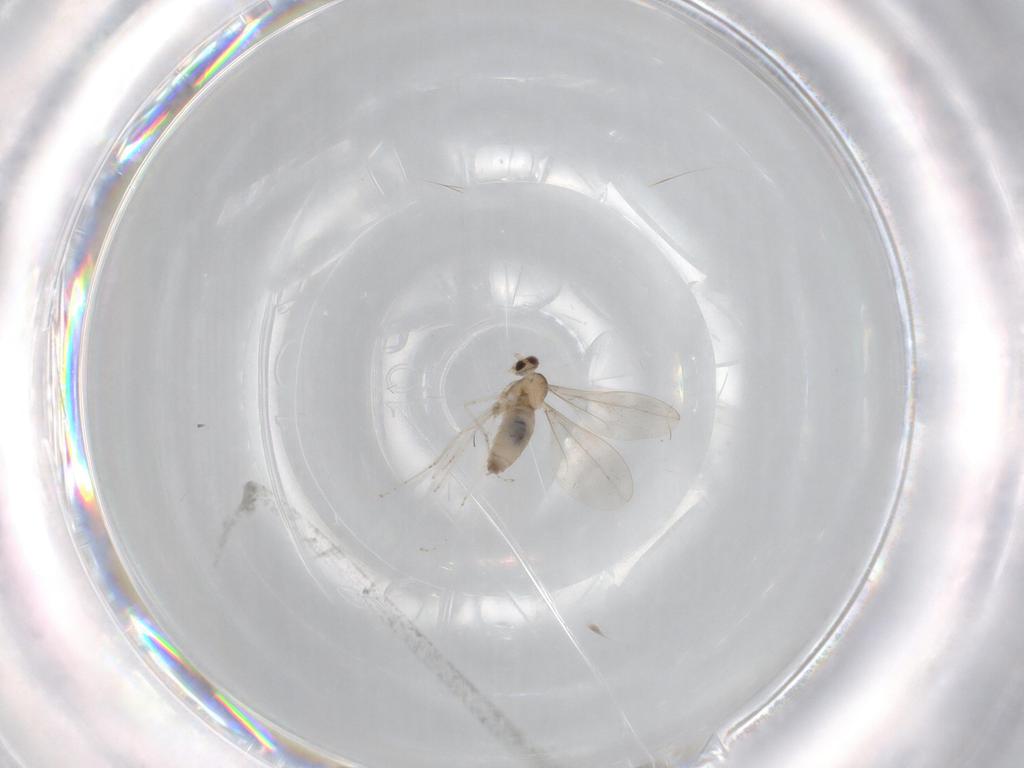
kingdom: Animalia
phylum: Arthropoda
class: Insecta
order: Diptera
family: Cecidomyiidae
